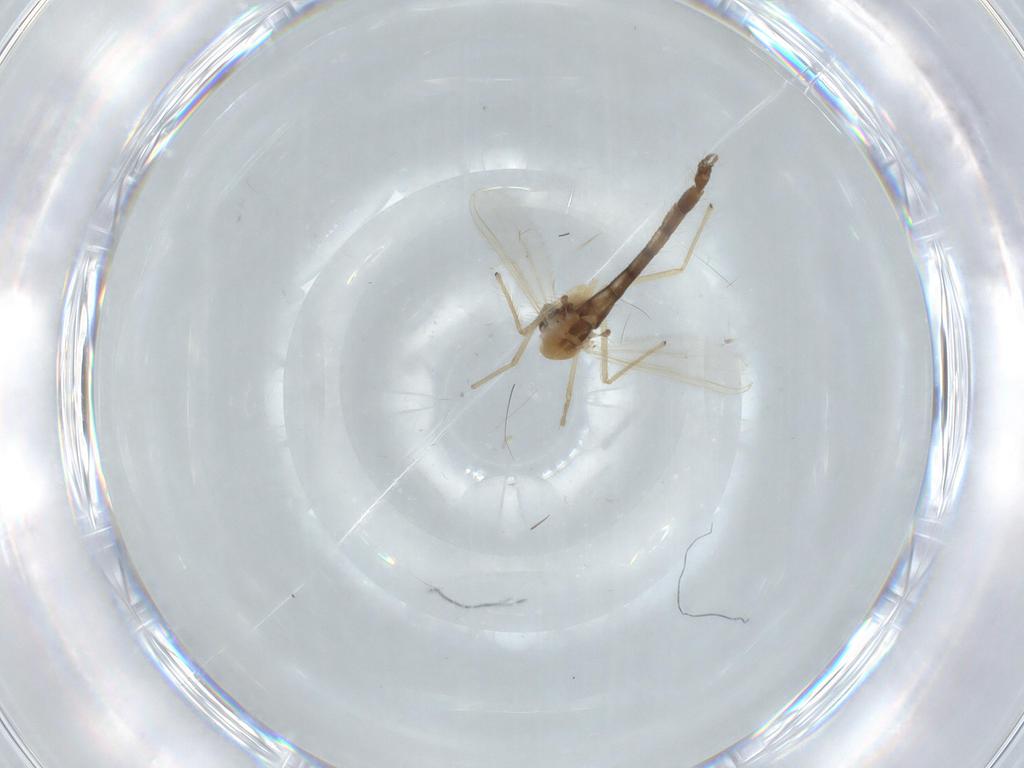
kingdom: Animalia
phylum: Arthropoda
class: Insecta
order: Diptera
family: Chironomidae
